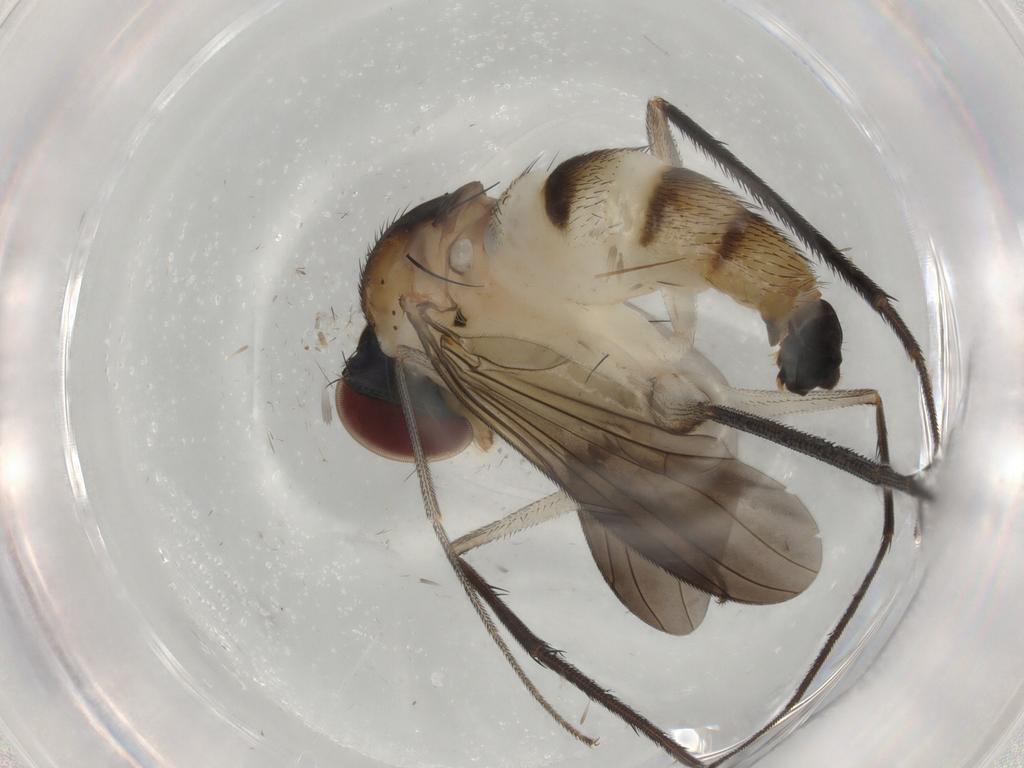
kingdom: Animalia
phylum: Arthropoda
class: Insecta
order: Diptera
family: Dolichopodidae
